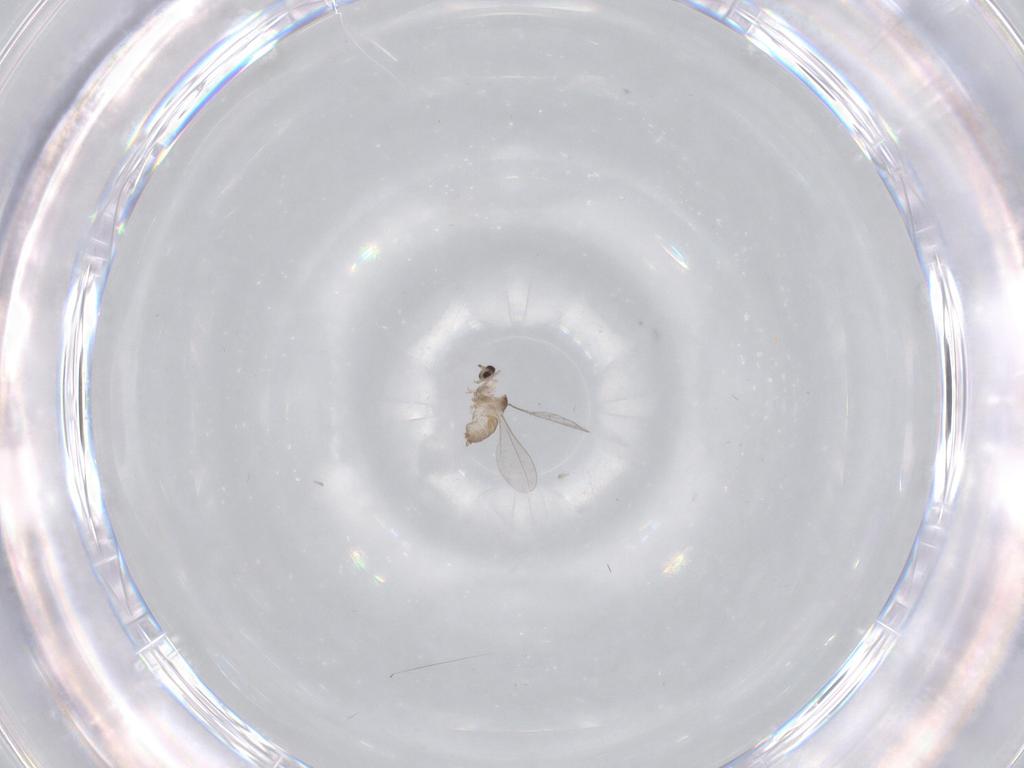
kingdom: Animalia
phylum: Arthropoda
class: Insecta
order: Diptera
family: Cecidomyiidae
